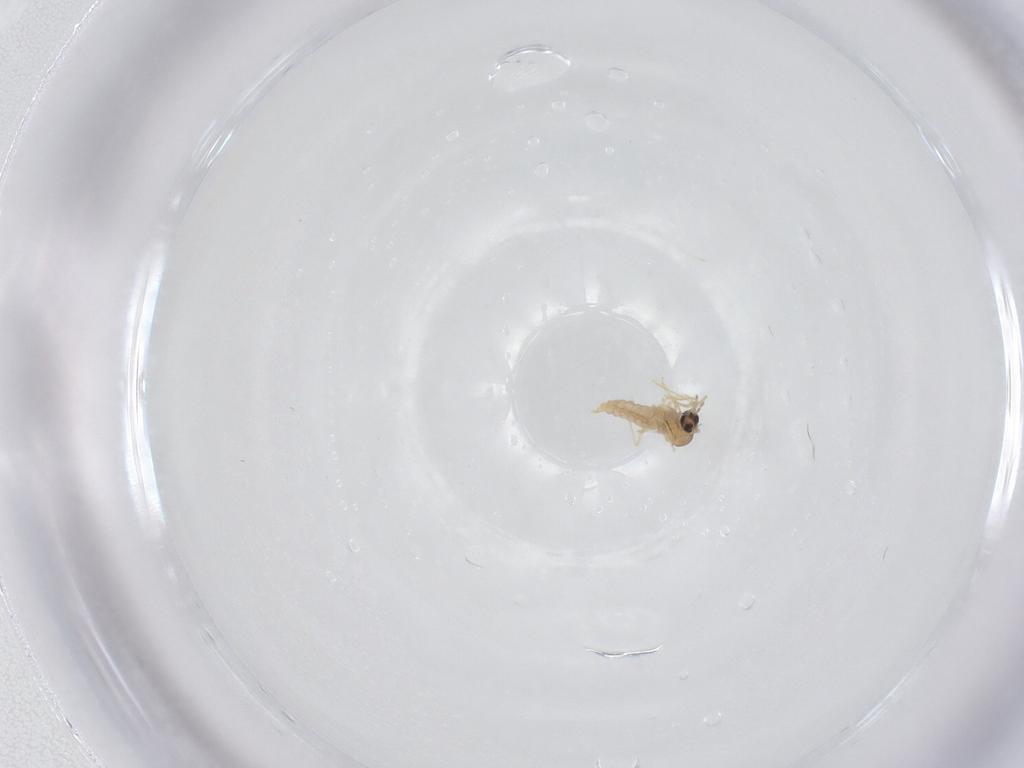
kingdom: Animalia
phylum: Arthropoda
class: Insecta
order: Diptera
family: Cecidomyiidae
